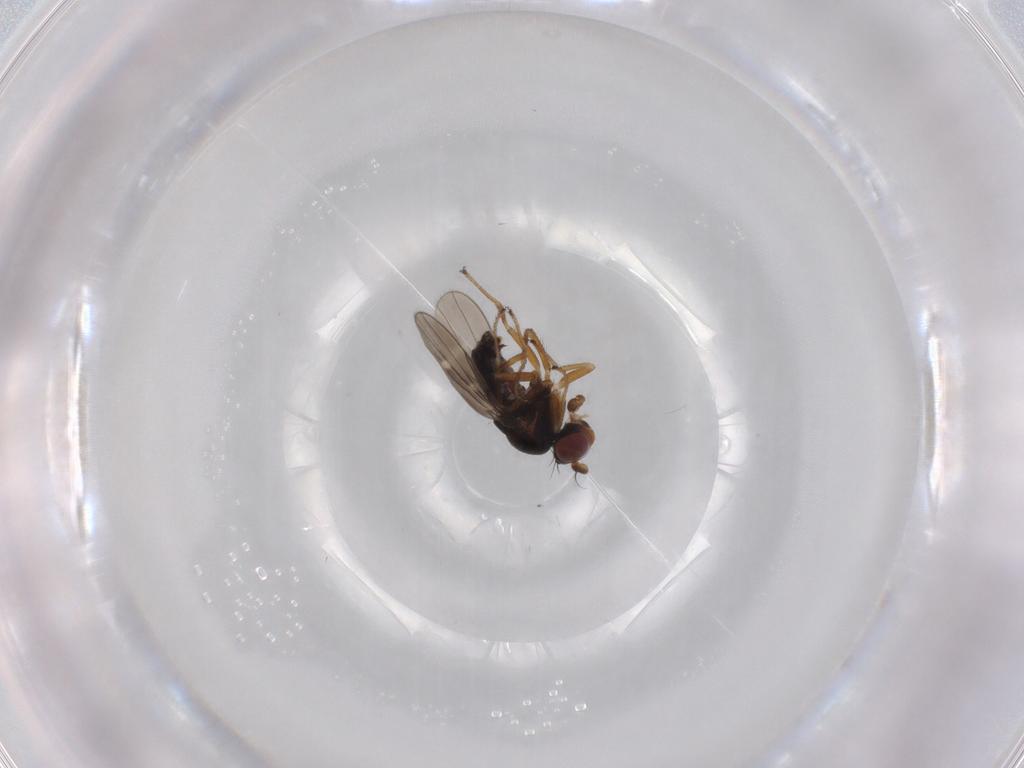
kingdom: Animalia
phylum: Arthropoda
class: Insecta
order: Diptera
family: Ephydridae
